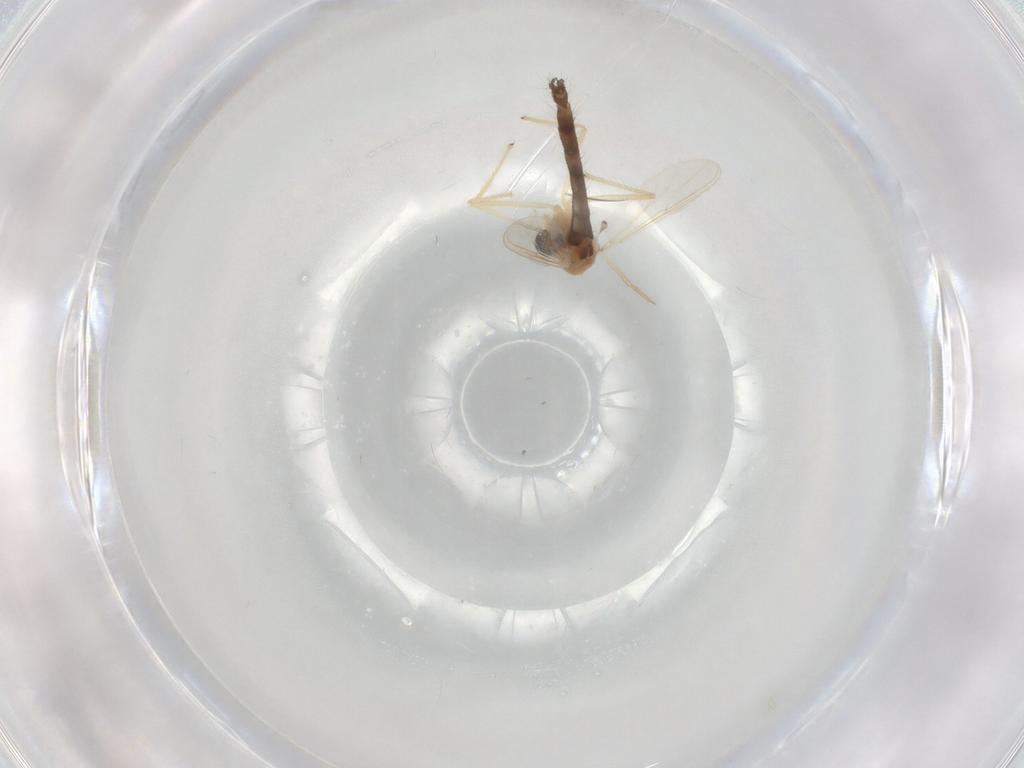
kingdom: Animalia
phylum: Arthropoda
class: Insecta
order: Diptera
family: Chironomidae
